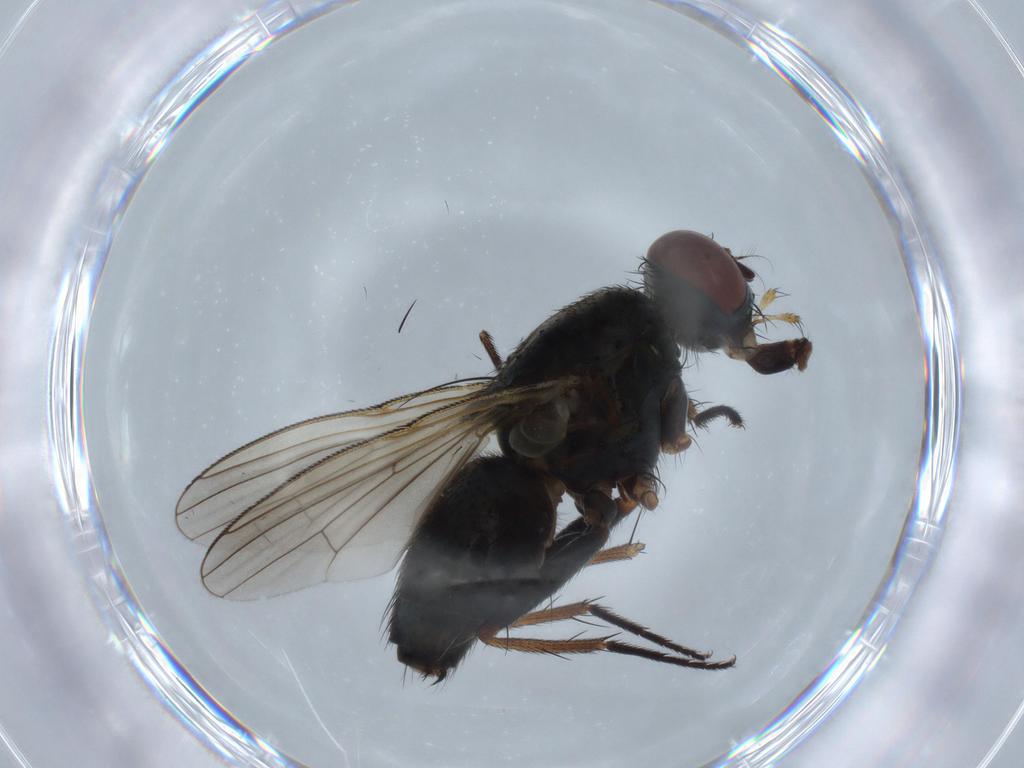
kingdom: Animalia
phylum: Arthropoda
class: Insecta
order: Diptera
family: Muscidae
